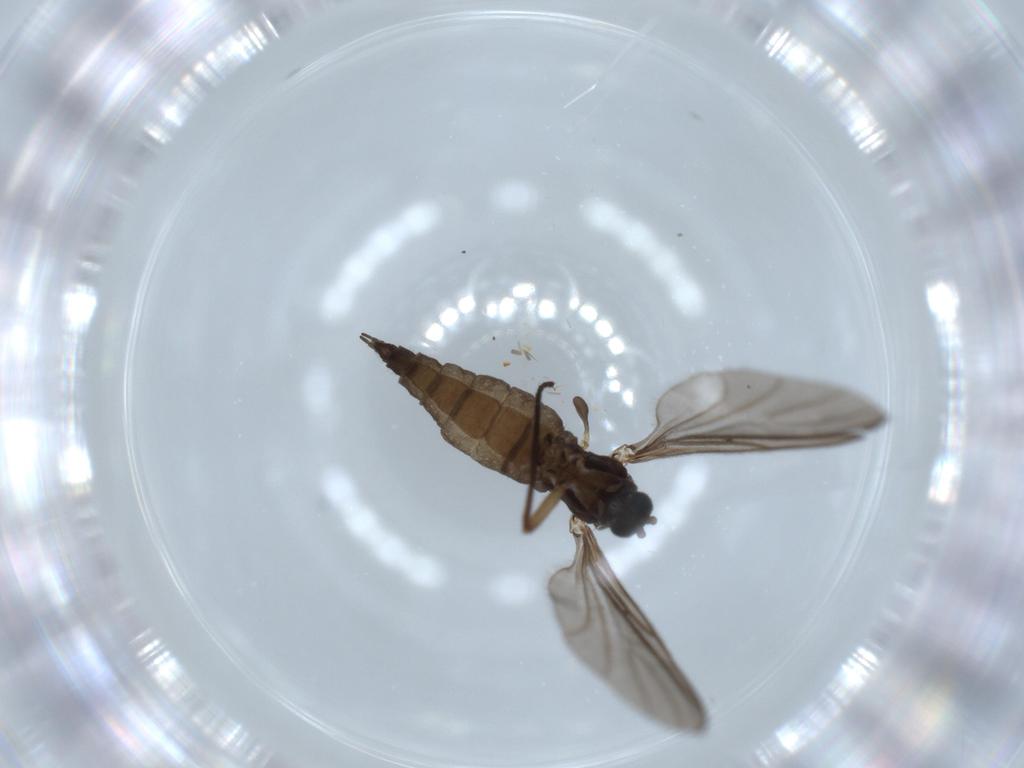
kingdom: Animalia
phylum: Arthropoda
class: Insecta
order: Diptera
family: Sciaridae
